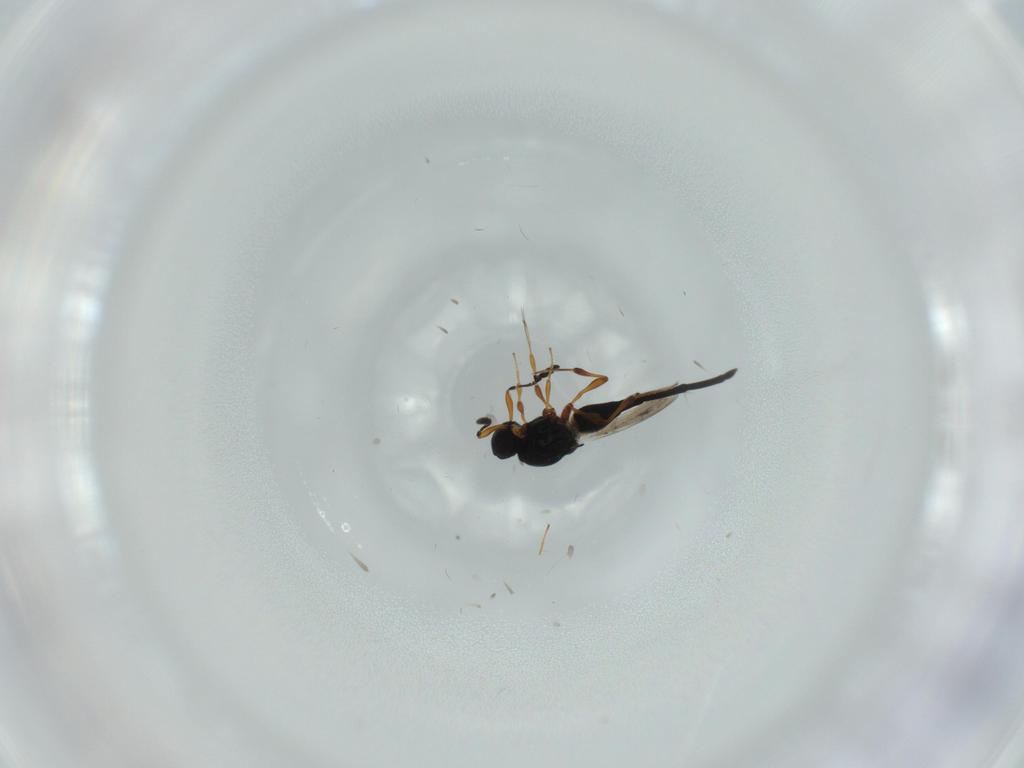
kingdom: Animalia
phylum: Arthropoda
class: Insecta
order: Hymenoptera
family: Platygastridae
